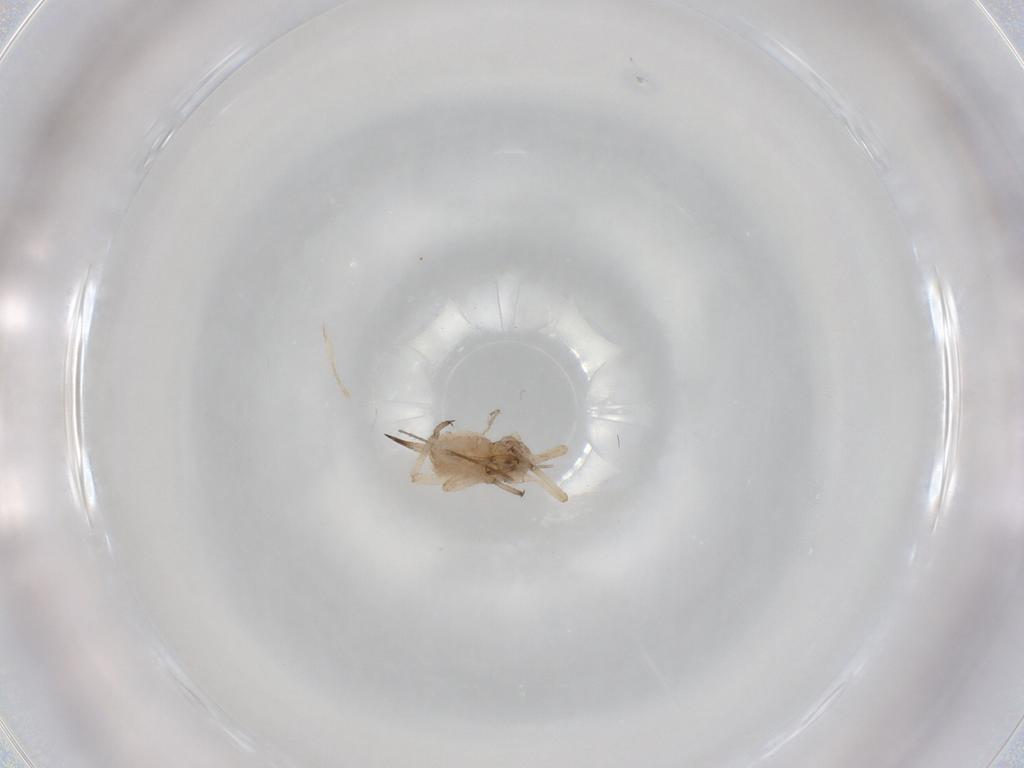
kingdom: Animalia
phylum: Arthropoda
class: Insecta
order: Hemiptera
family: Aphididae
